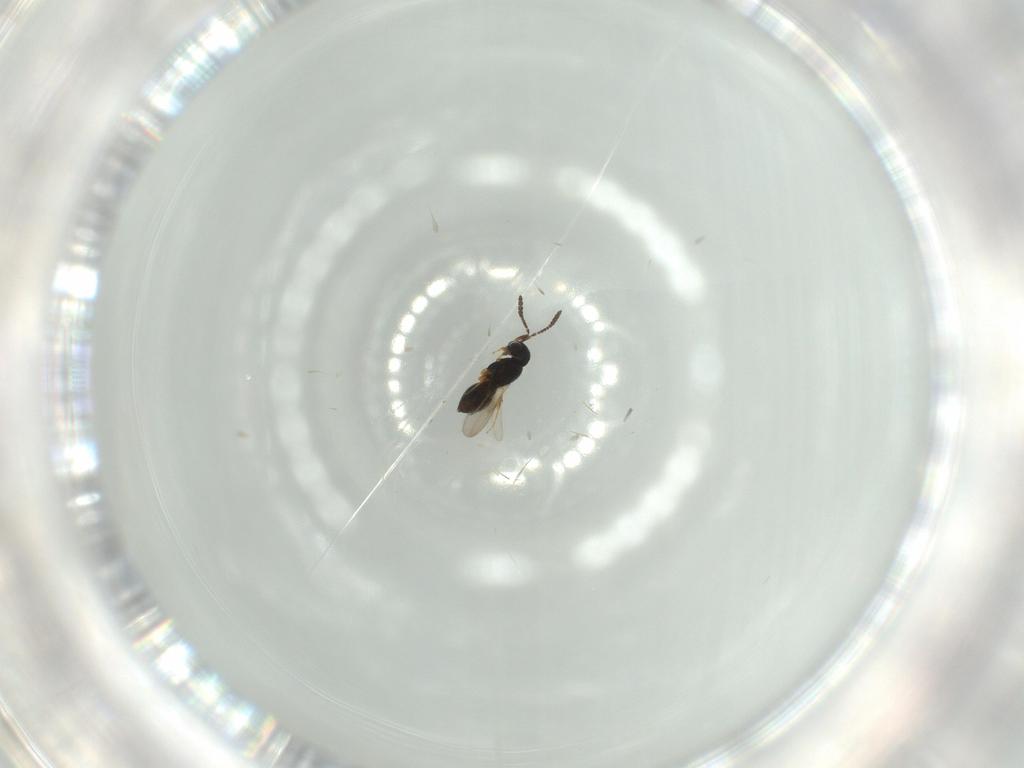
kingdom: Animalia
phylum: Arthropoda
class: Insecta
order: Hymenoptera
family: Scelionidae
